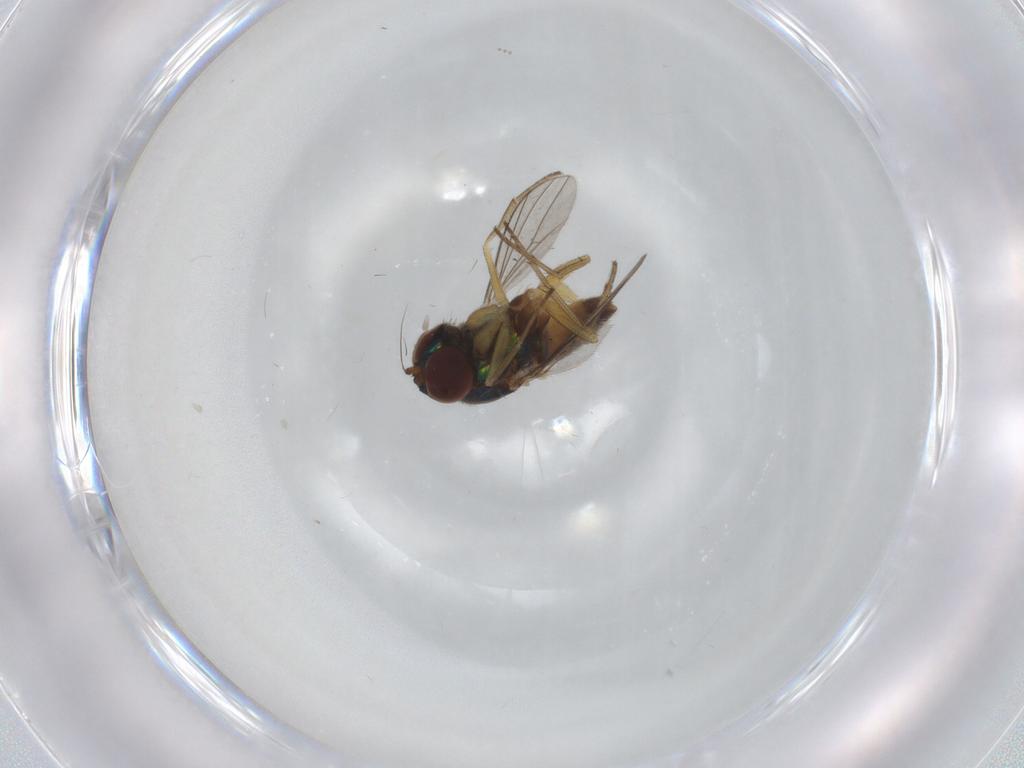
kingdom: Animalia
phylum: Arthropoda
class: Insecta
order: Diptera
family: Dolichopodidae
